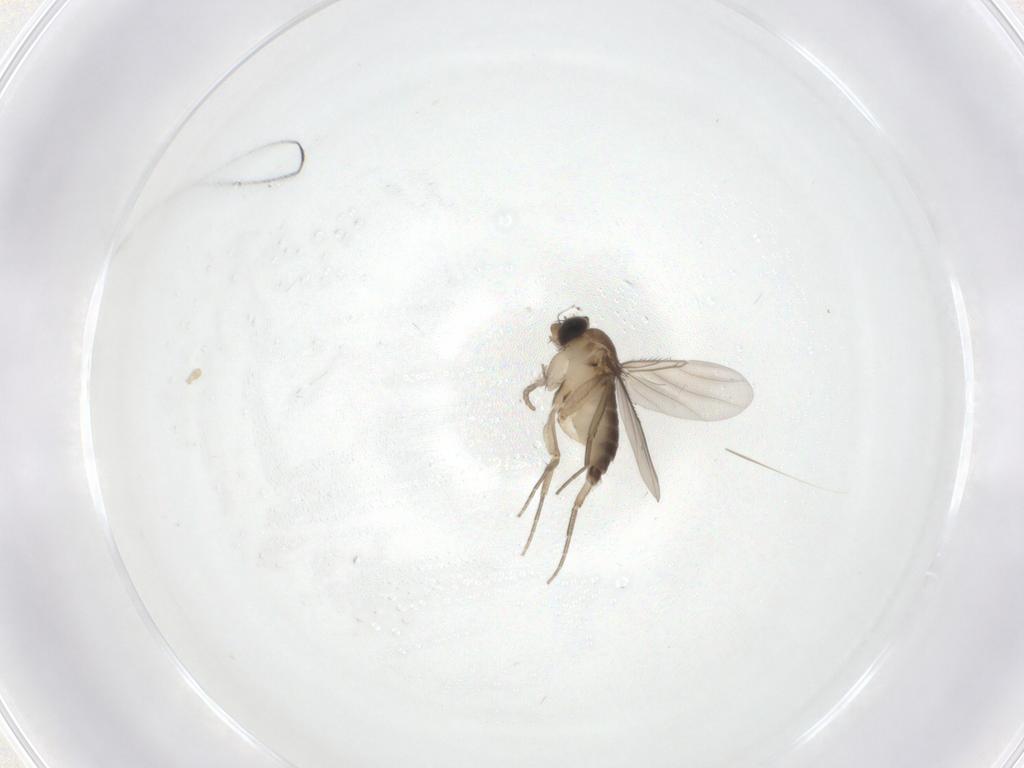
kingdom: Animalia
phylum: Arthropoda
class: Insecta
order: Diptera
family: Phoridae
